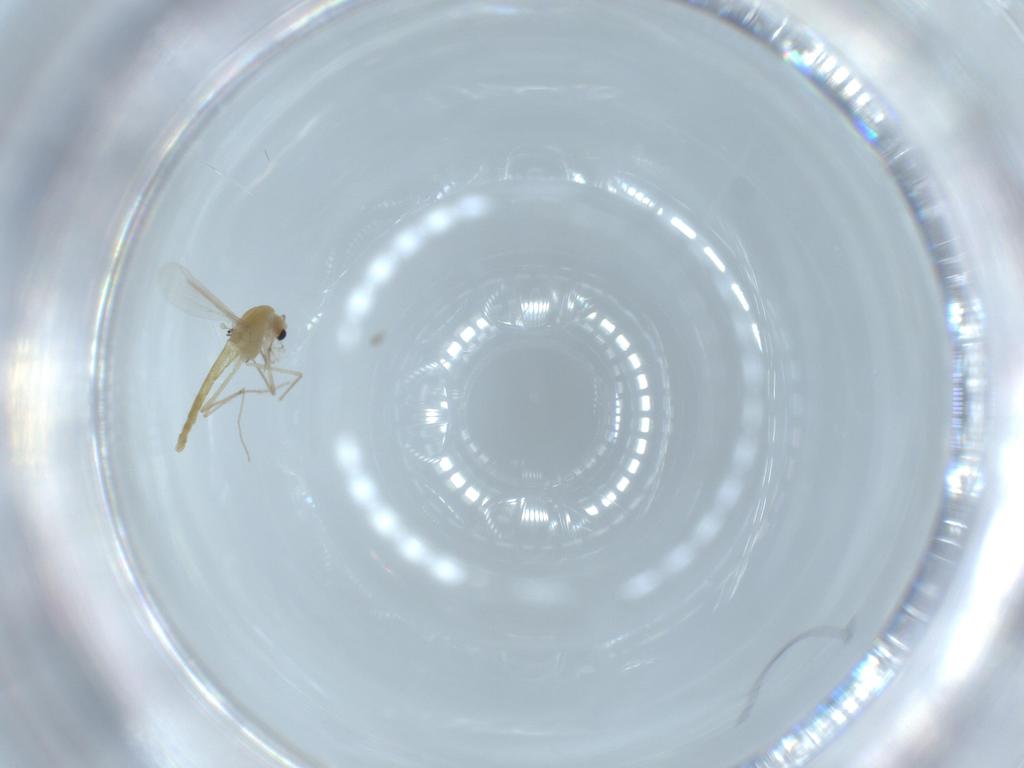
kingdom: Animalia
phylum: Arthropoda
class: Insecta
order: Diptera
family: Chironomidae
